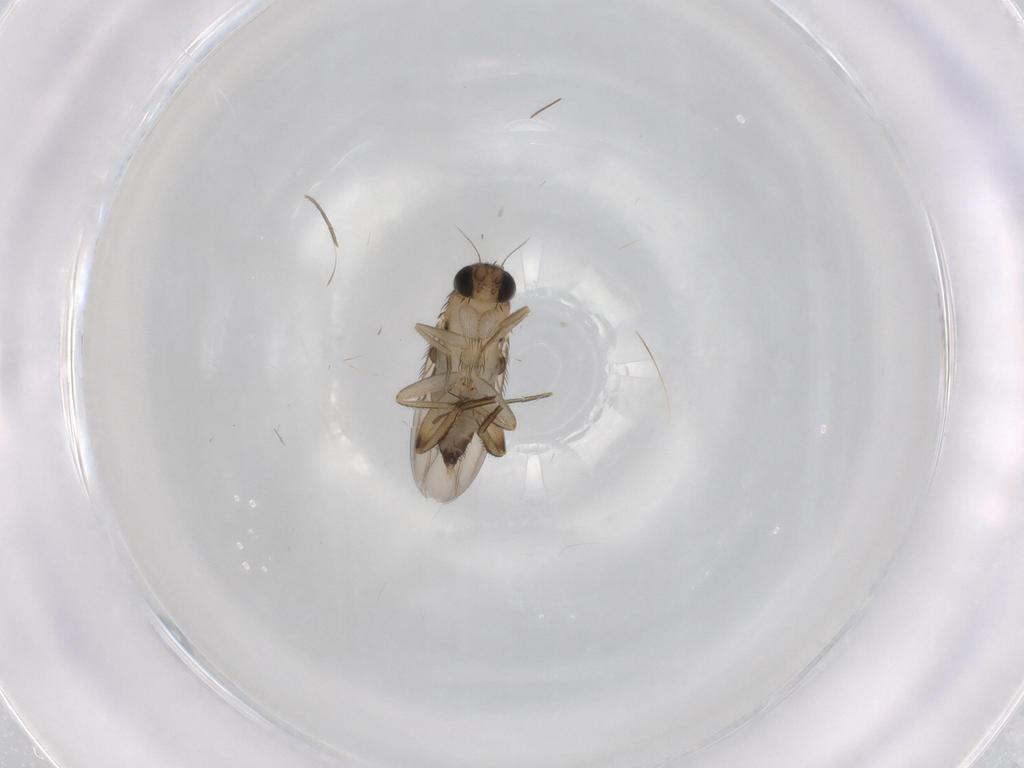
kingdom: Animalia
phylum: Arthropoda
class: Insecta
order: Diptera
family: Phoridae
